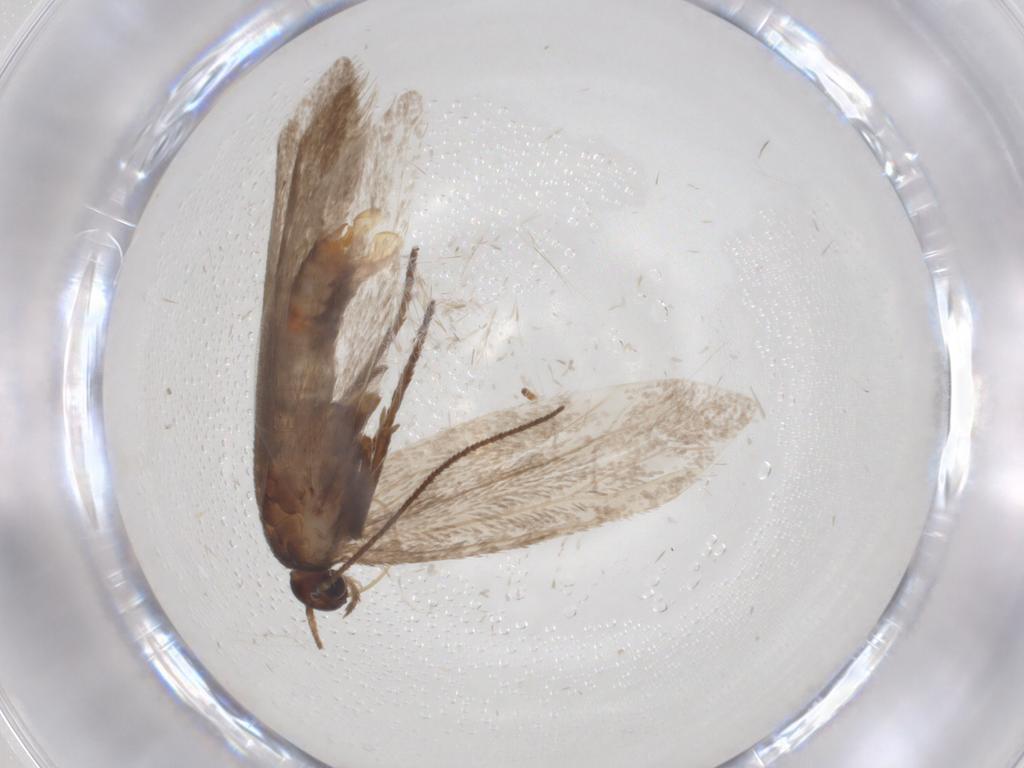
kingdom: Animalia
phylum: Arthropoda
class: Insecta
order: Lepidoptera
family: Limacodidae
